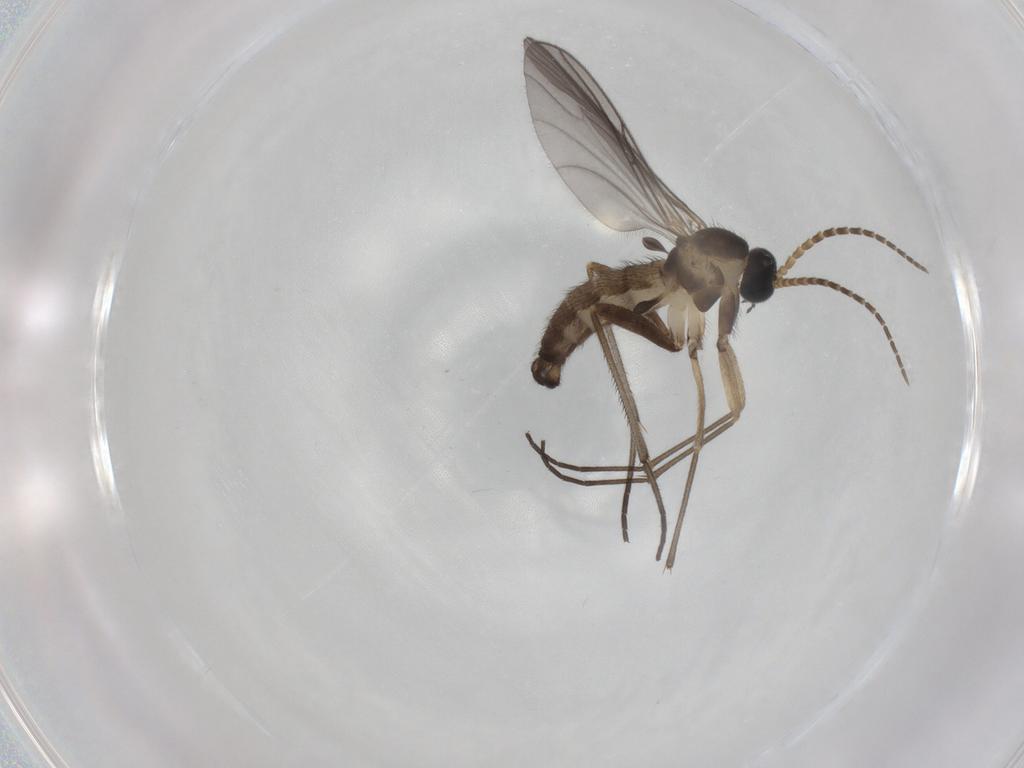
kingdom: Animalia
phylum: Arthropoda
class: Insecta
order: Diptera
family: Sciaridae
